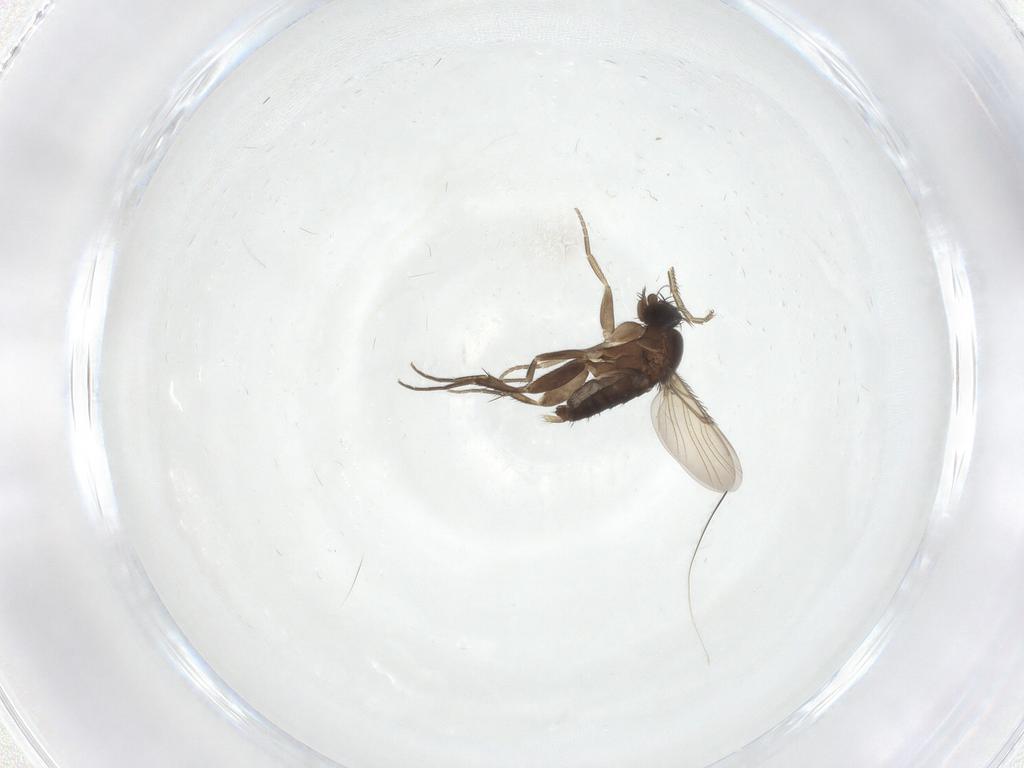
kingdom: Animalia
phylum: Arthropoda
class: Insecta
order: Diptera
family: Phoridae
